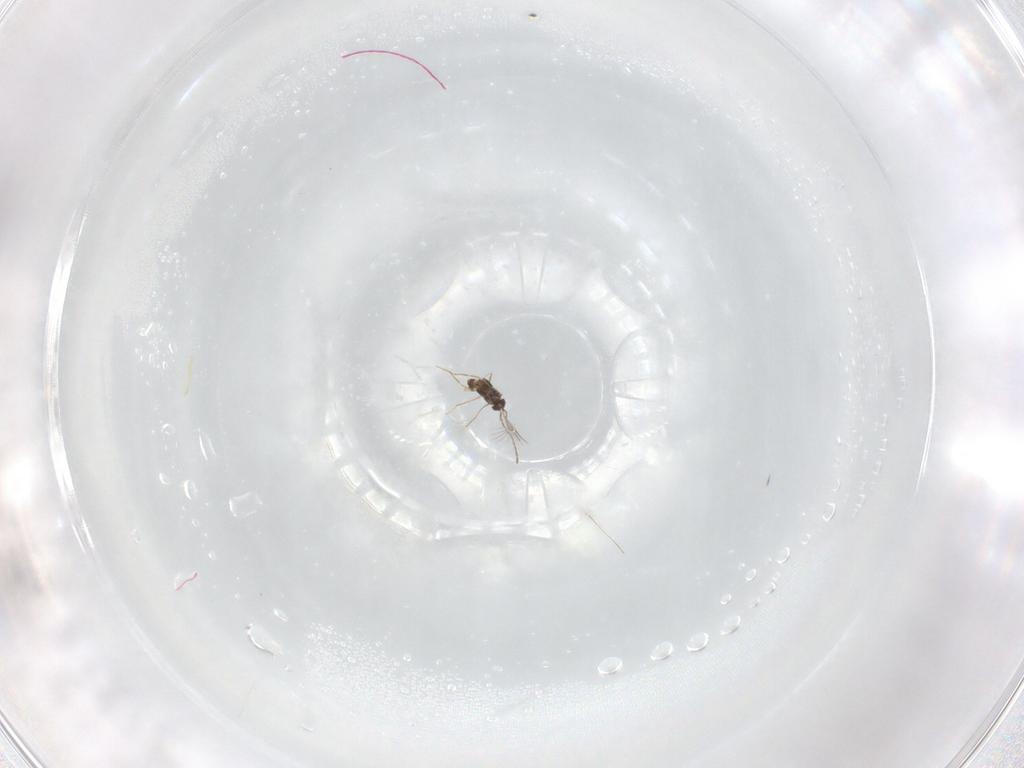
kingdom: Animalia
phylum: Arthropoda
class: Insecta
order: Hymenoptera
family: Mymaridae
